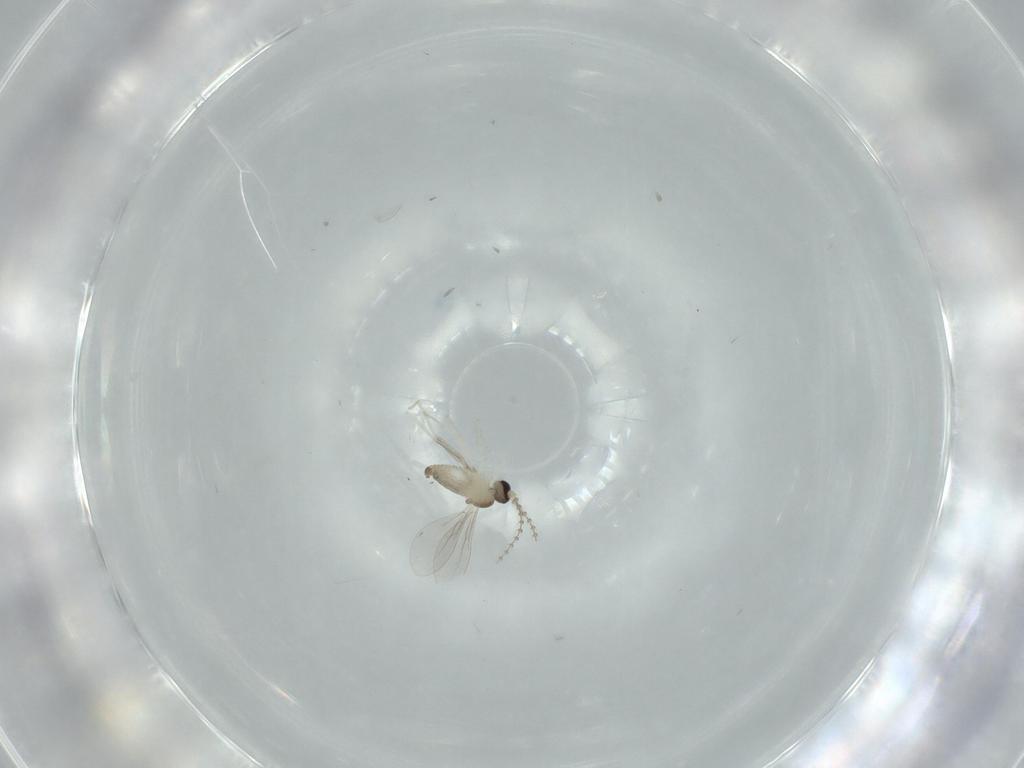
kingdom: Animalia
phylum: Arthropoda
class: Insecta
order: Diptera
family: Cecidomyiidae
